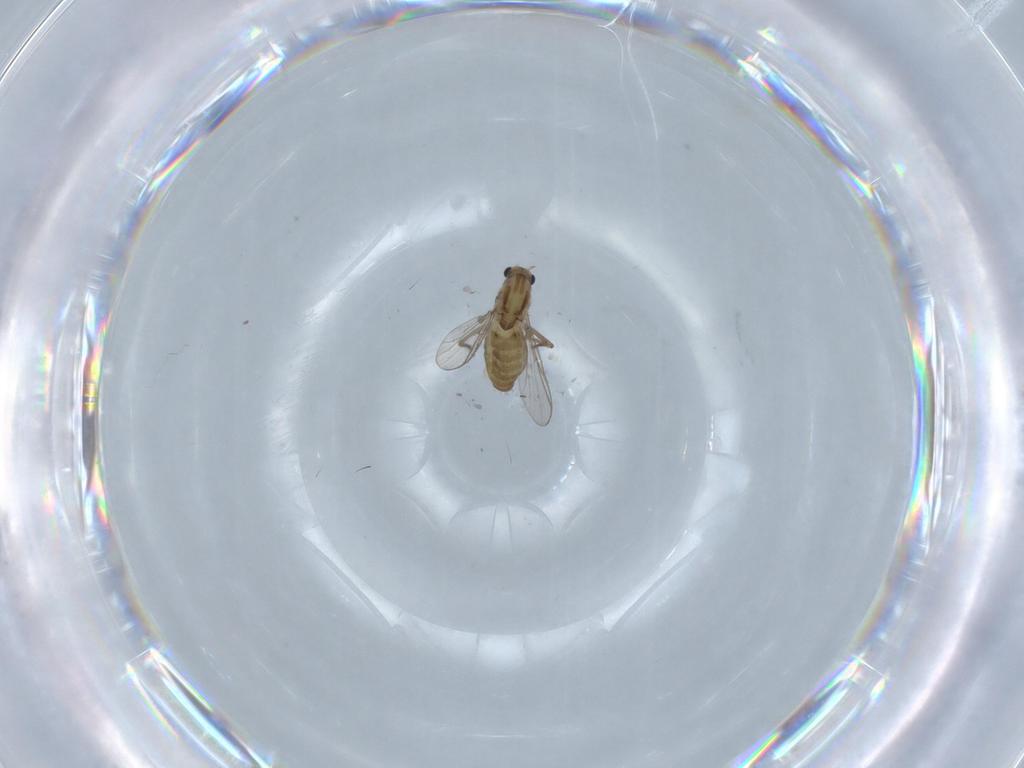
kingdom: Animalia
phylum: Arthropoda
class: Insecta
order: Diptera
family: Chironomidae
